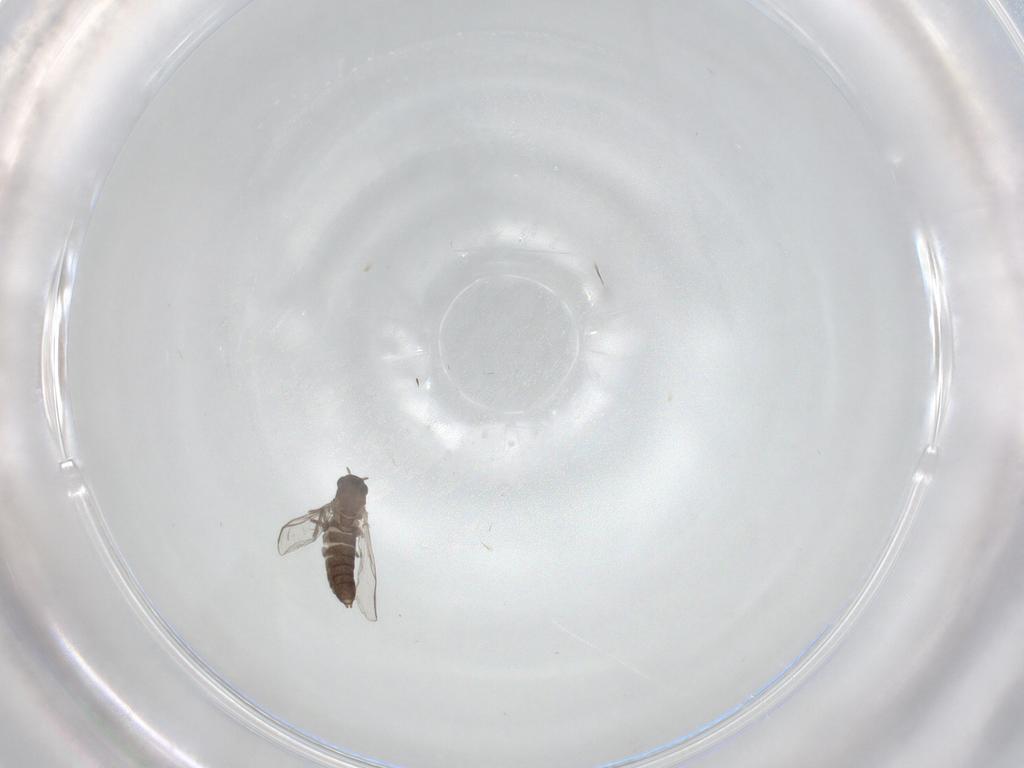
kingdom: Animalia
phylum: Arthropoda
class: Insecta
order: Diptera
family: Chironomidae
